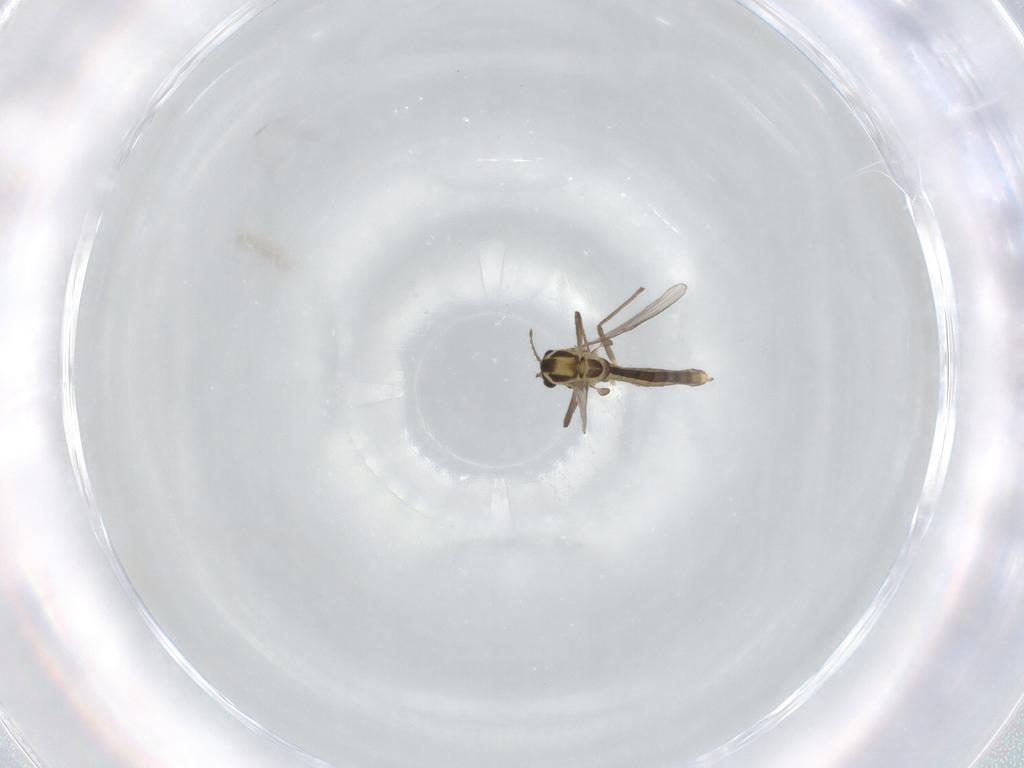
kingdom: Animalia
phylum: Arthropoda
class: Insecta
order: Diptera
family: Chironomidae
